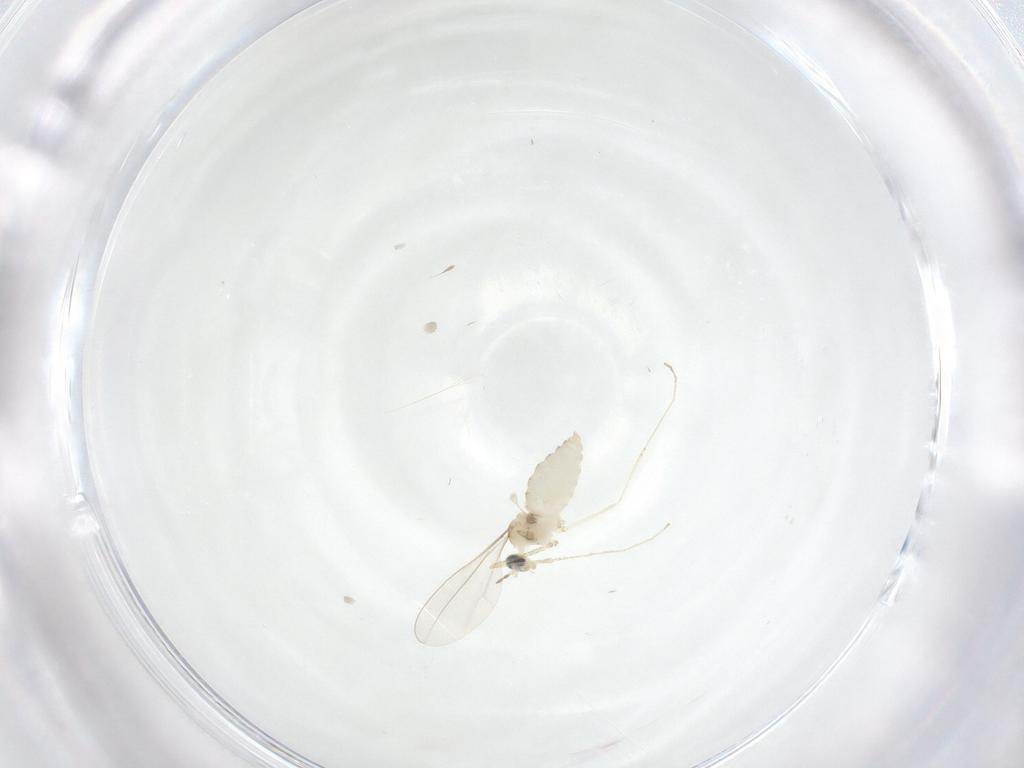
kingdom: Animalia
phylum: Arthropoda
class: Insecta
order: Diptera
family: Cecidomyiidae
